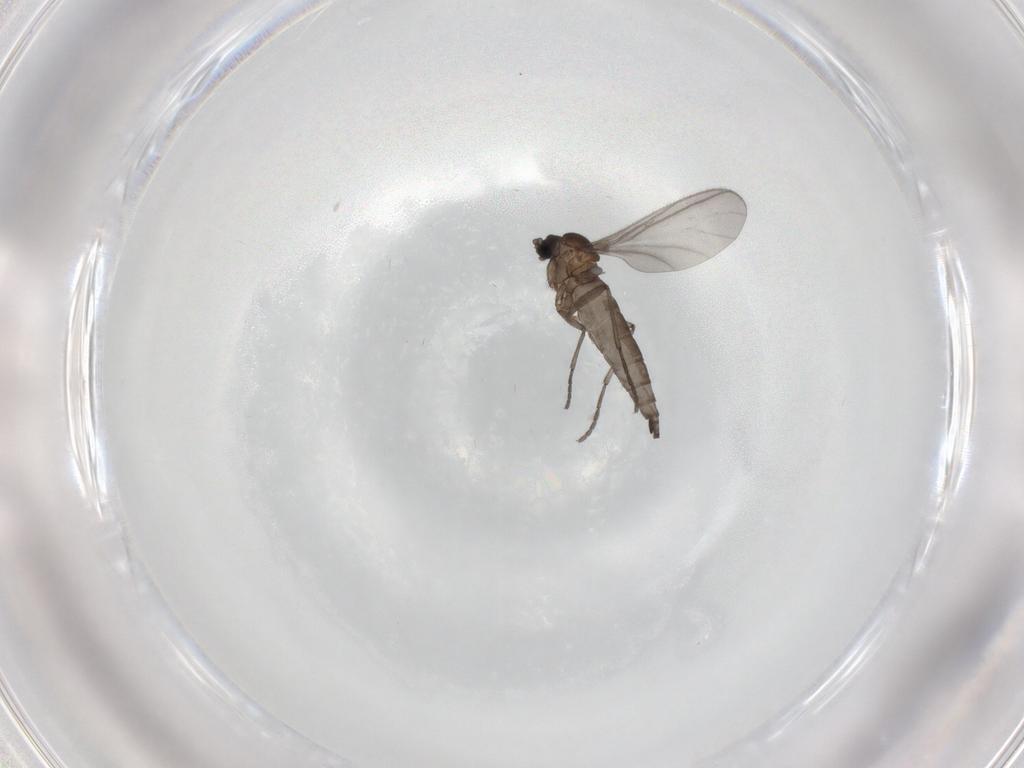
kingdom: Animalia
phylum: Arthropoda
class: Insecta
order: Diptera
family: Sciaridae
